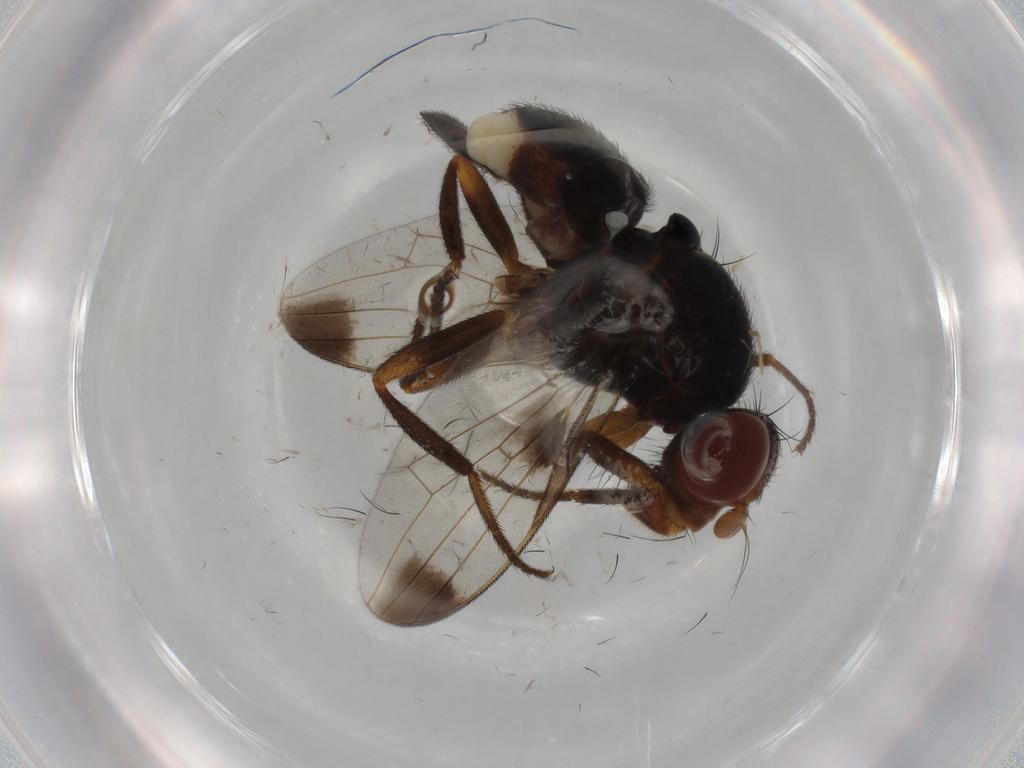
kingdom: Animalia
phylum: Arthropoda
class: Insecta
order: Diptera
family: Ulidiidae
